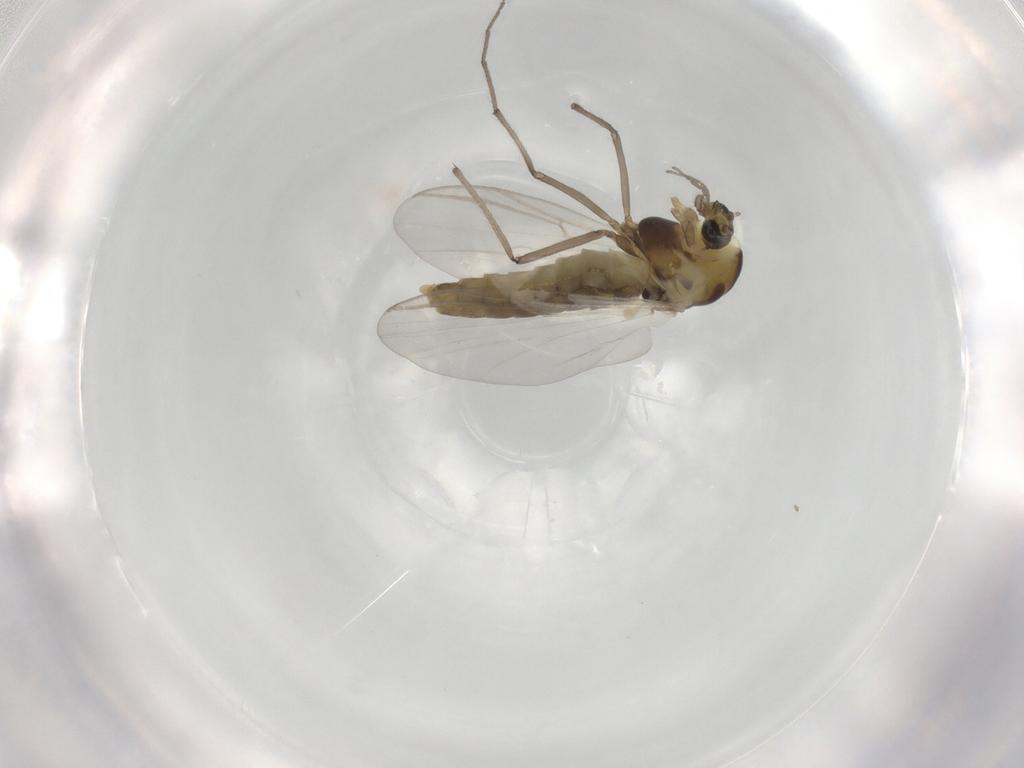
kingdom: Animalia
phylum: Arthropoda
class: Insecta
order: Diptera
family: Chironomidae
